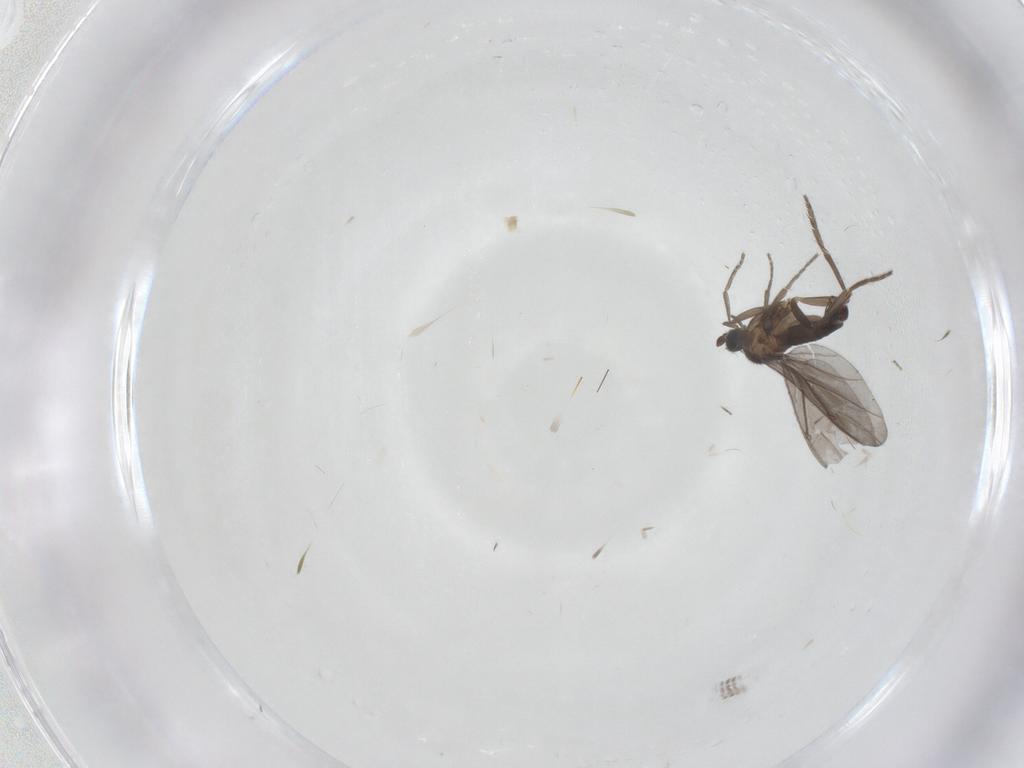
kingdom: Animalia
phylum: Arthropoda
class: Insecta
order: Diptera
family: Phoridae
